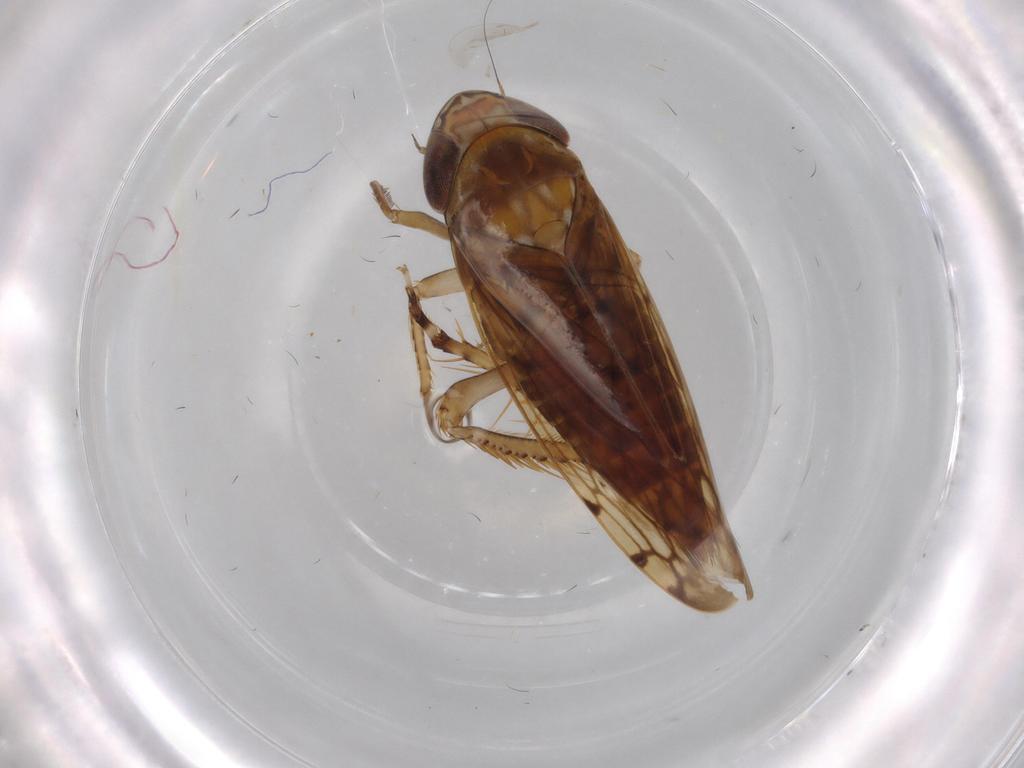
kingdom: Animalia
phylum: Arthropoda
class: Insecta
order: Hemiptera
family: Cicadellidae
